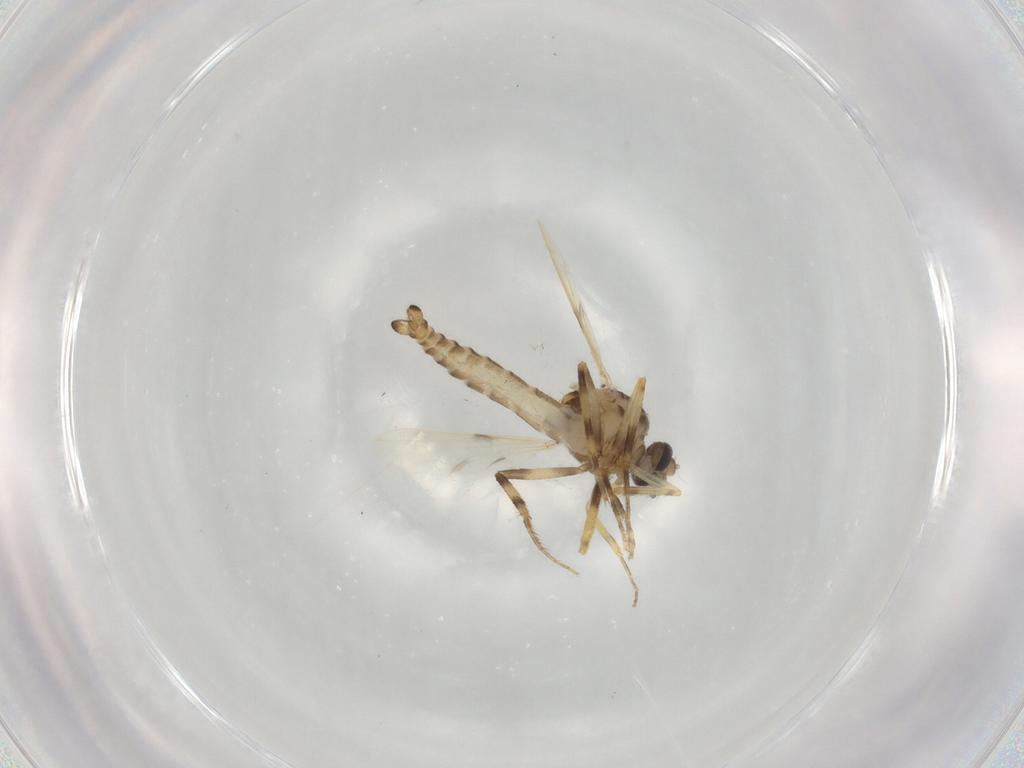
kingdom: Animalia
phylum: Arthropoda
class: Insecta
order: Diptera
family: Ceratopogonidae
